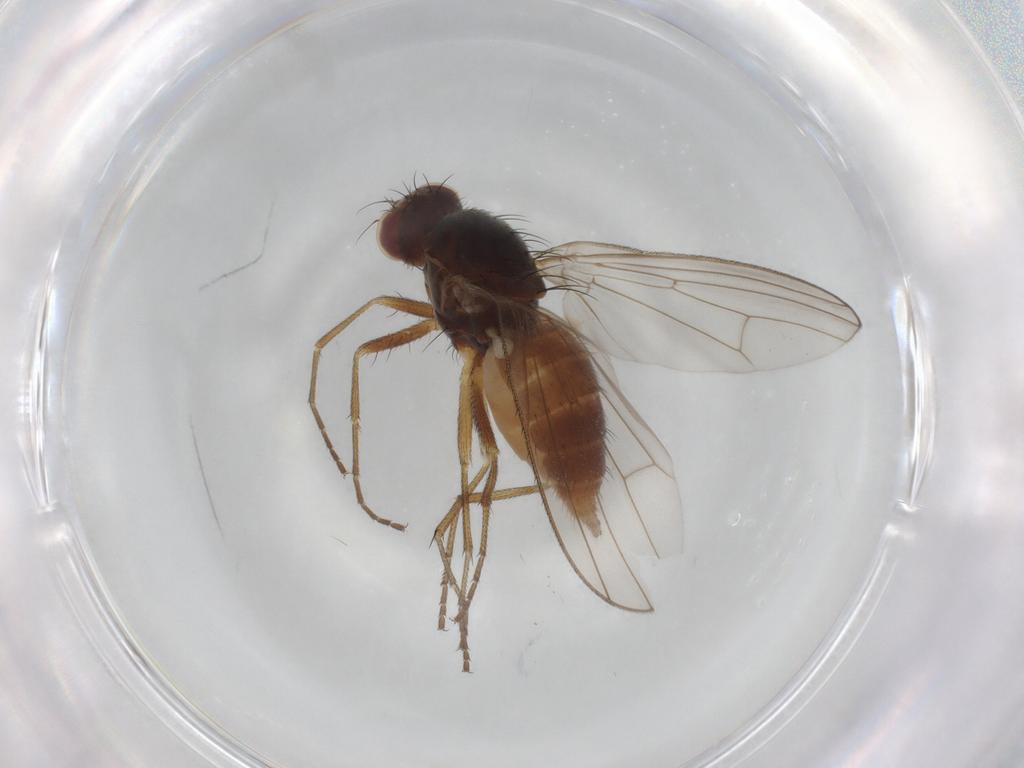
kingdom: Animalia
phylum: Arthropoda
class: Insecta
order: Diptera
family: Heleomyzidae
